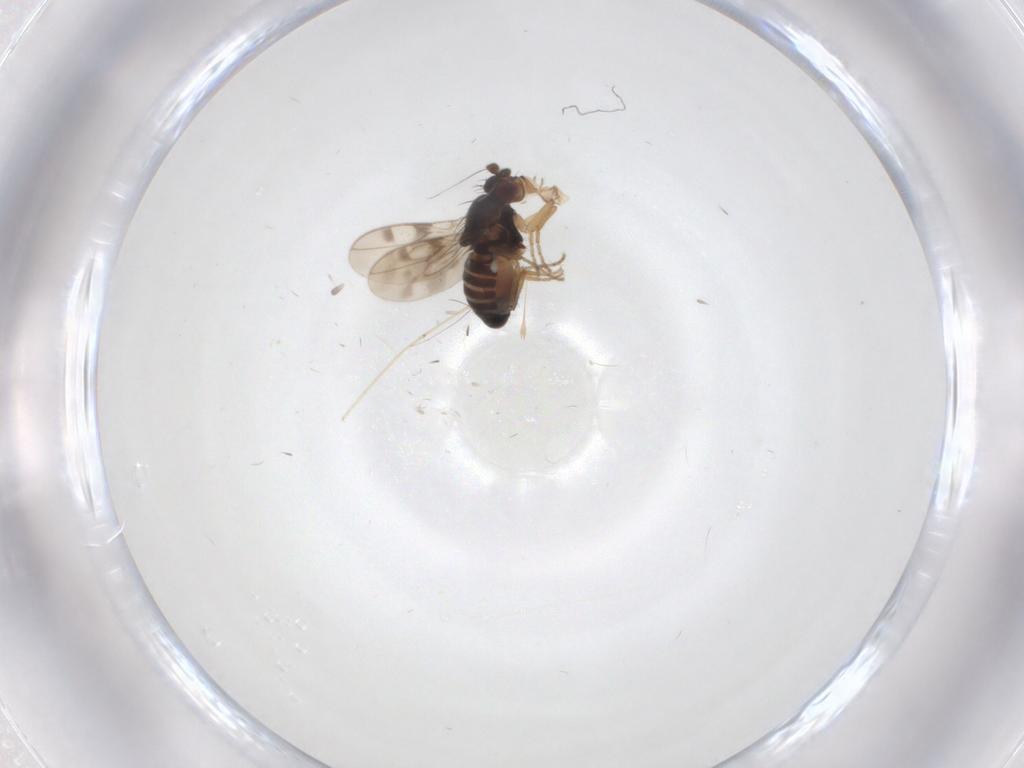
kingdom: Animalia
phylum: Arthropoda
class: Insecta
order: Diptera
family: Sphaeroceridae
